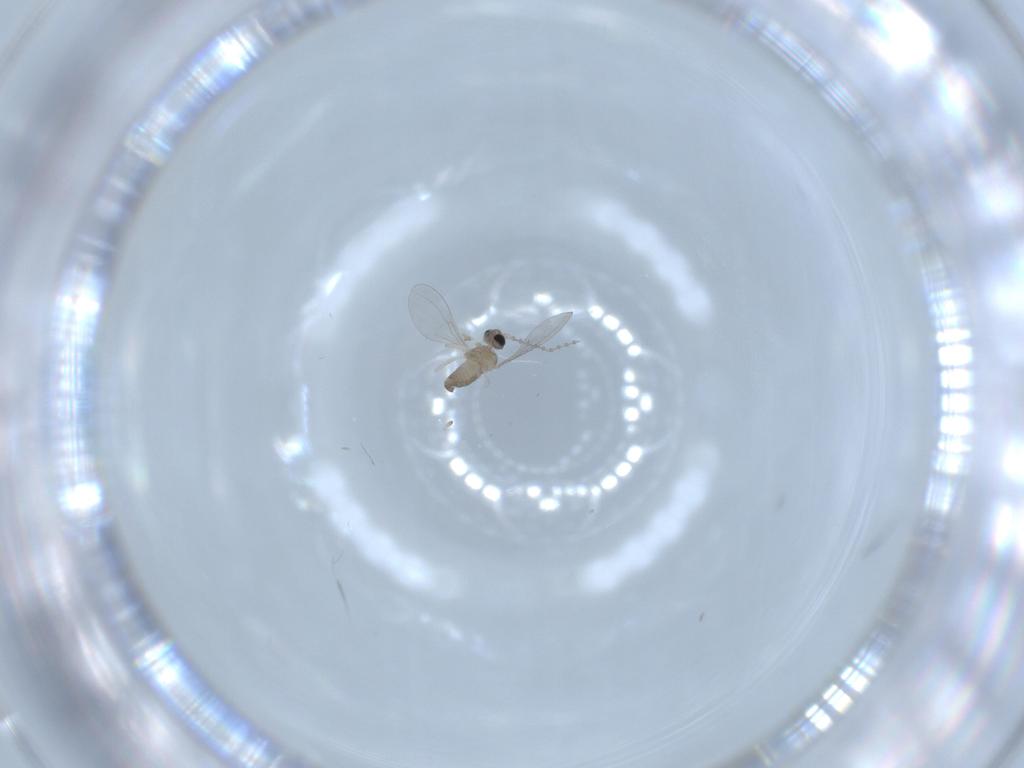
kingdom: Animalia
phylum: Arthropoda
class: Insecta
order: Diptera
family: Cecidomyiidae
